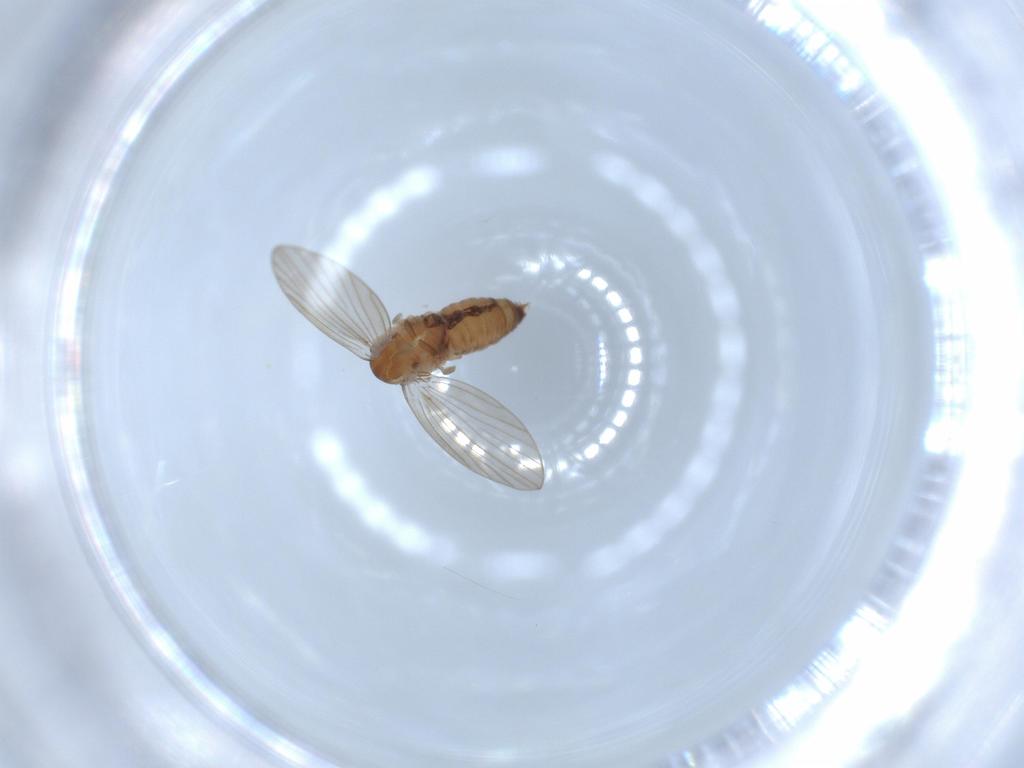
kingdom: Animalia
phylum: Arthropoda
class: Insecta
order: Diptera
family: Psychodidae
